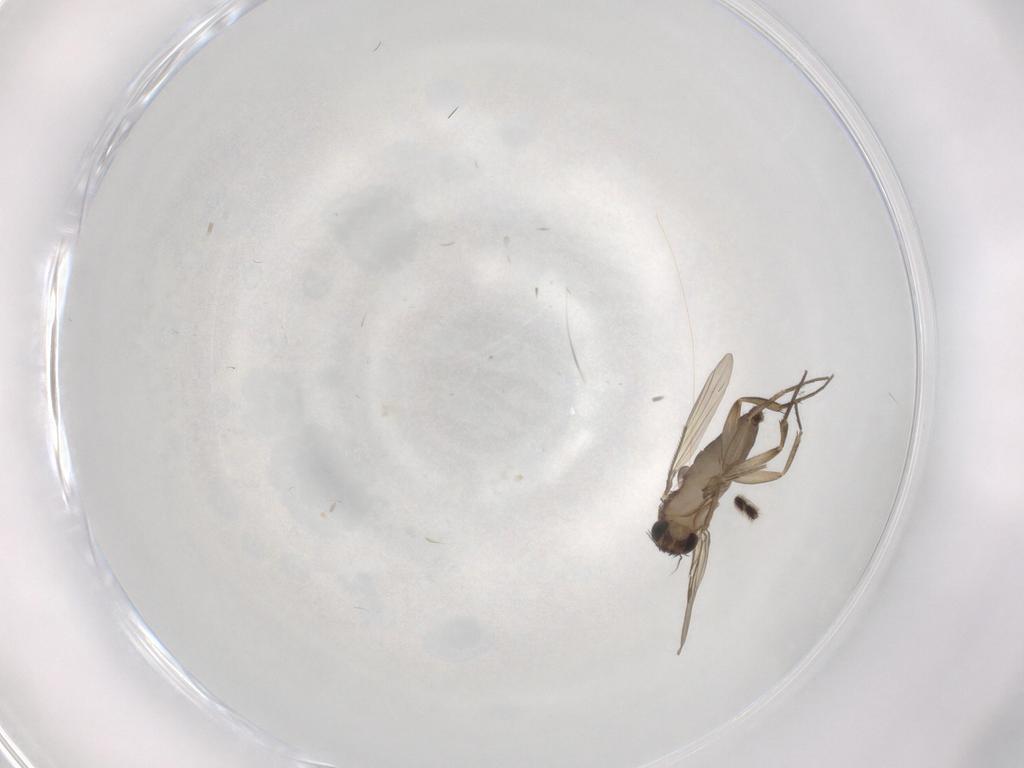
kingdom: Animalia
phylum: Arthropoda
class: Insecta
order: Diptera
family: Phoridae
